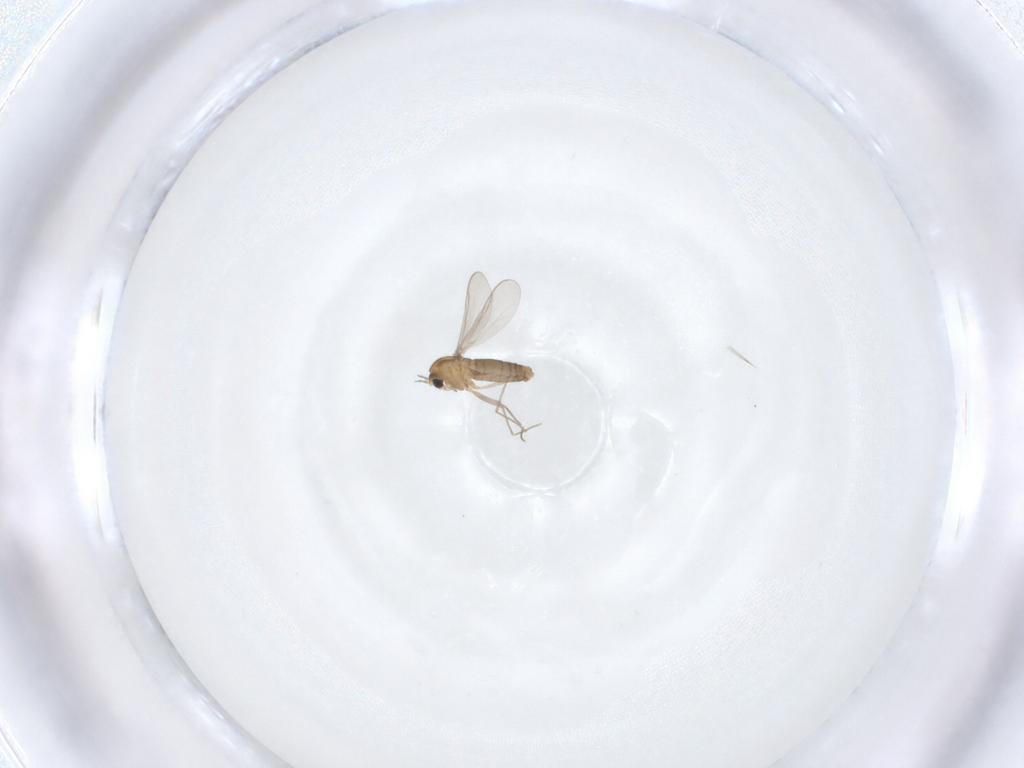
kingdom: Animalia
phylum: Arthropoda
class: Insecta
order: Diptera
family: Chironomidae
